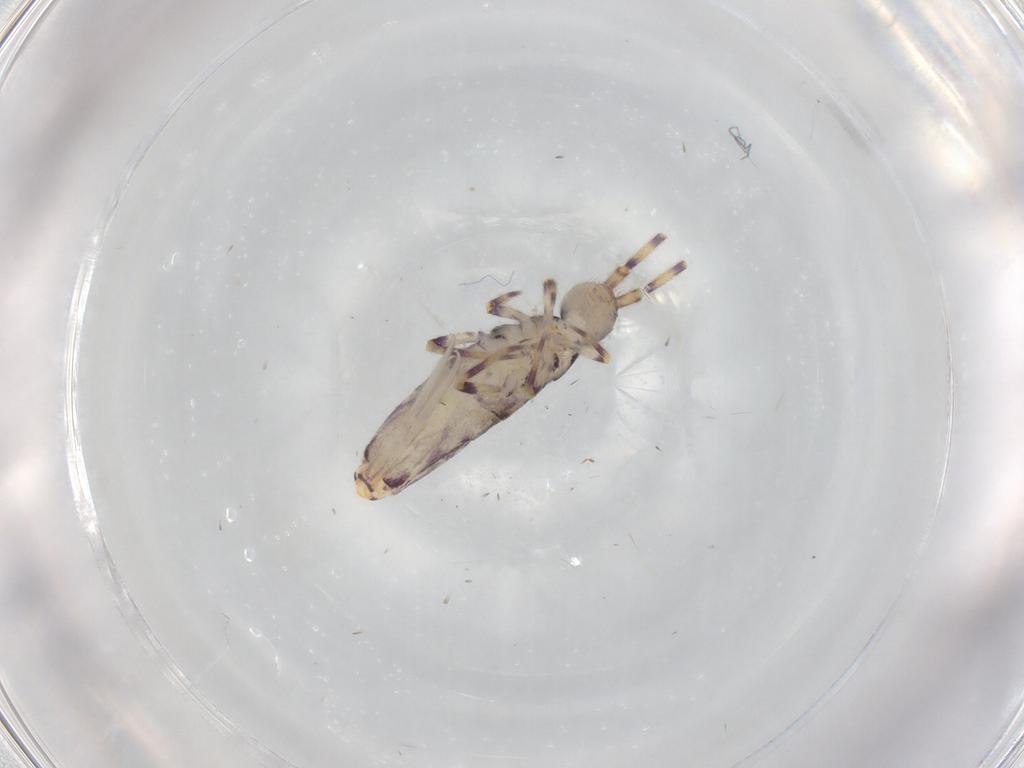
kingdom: Animalia
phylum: Arthropoda
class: Collembola
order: Entomobryomorpha
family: Entomobryidae
